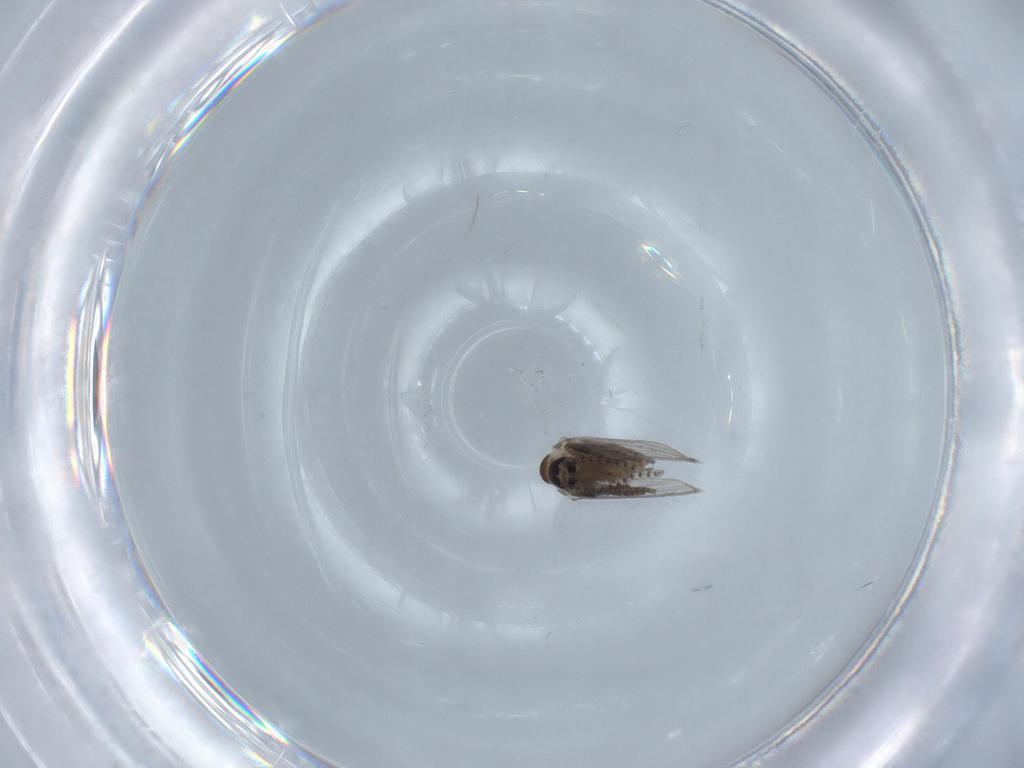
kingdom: Animalia
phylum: Arthropoda
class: Insecta
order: Diptera
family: Psychodidae
